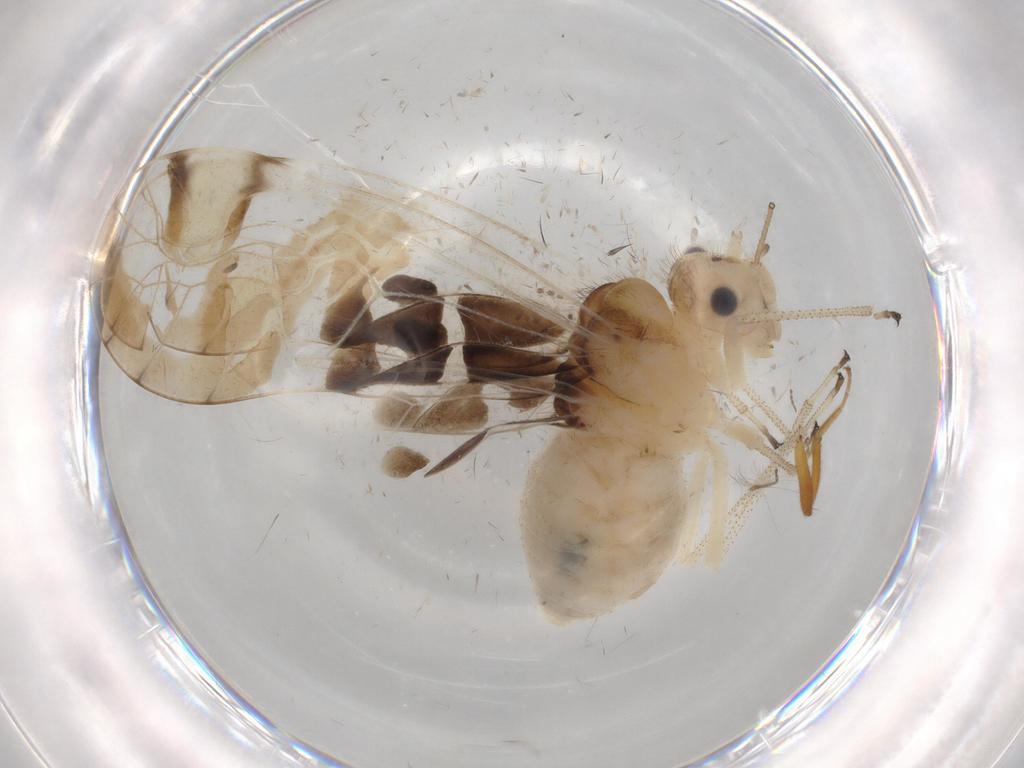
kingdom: Animalia
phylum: Arthropoda
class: Insecta
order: Psocodea
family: Amphipsocidae
